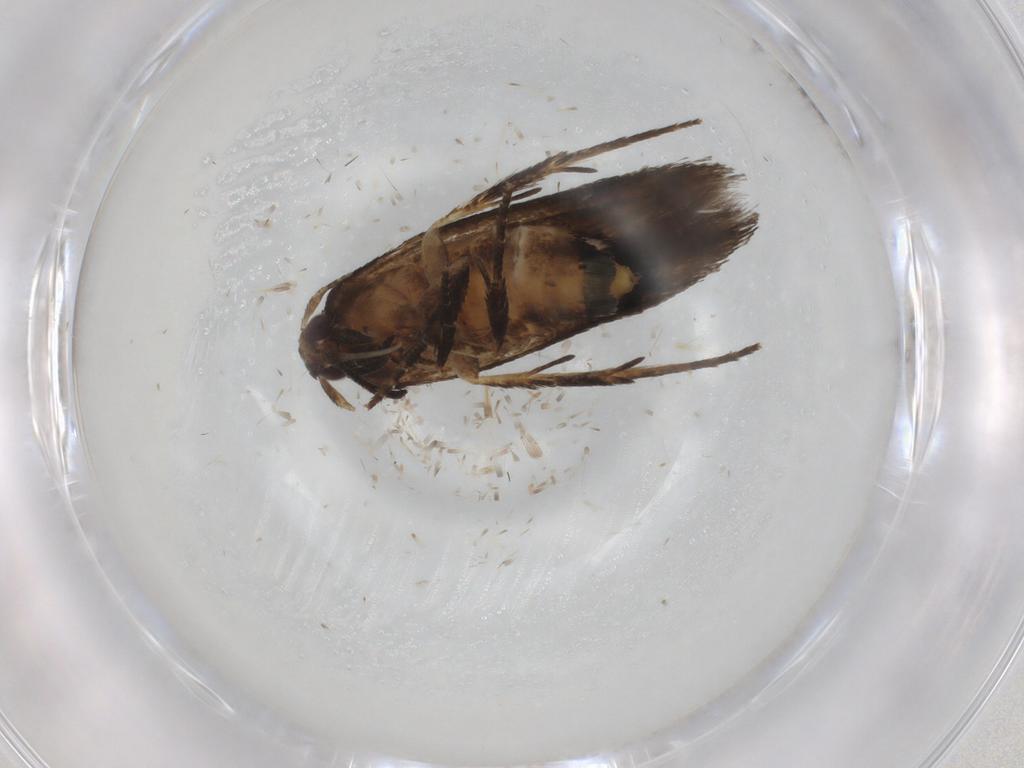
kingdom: Animalia
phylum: Arthropoda
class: Insecta
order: Lepidoptera
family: Cosmopterigidae
